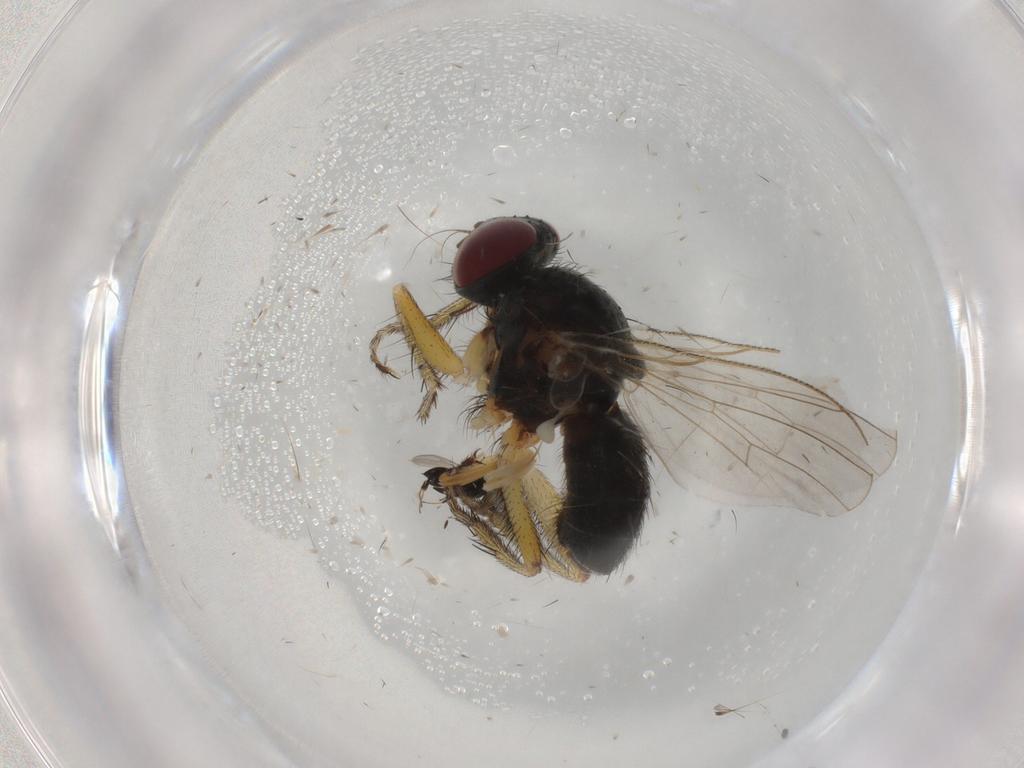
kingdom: Animalia
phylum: Arthropoda
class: Insecta
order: Diptera
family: Muscidae
